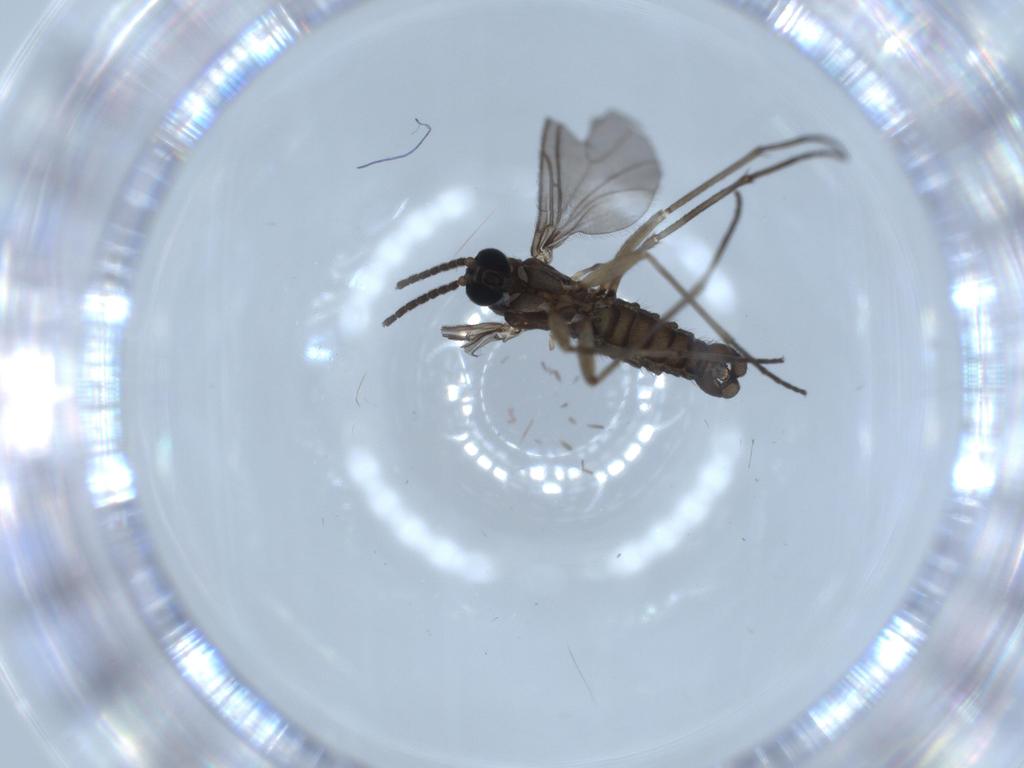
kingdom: Animalia
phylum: Arthropoda
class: Insecta
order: Diptera
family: Sciaridae
